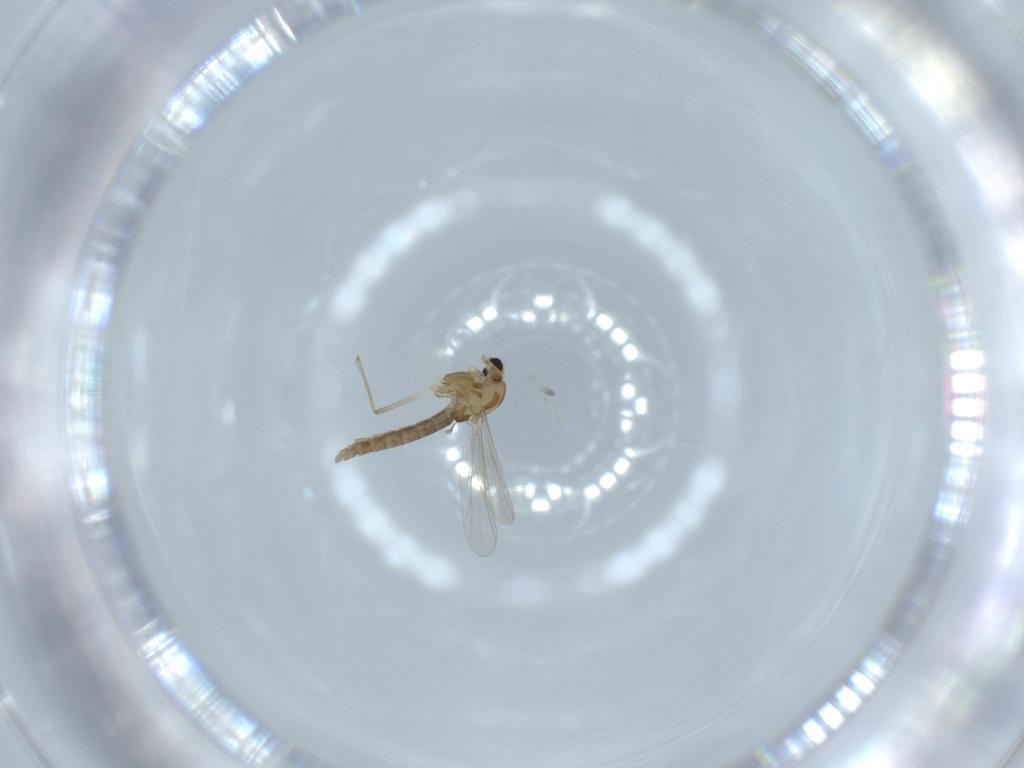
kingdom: Animalia
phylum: Arthropoda
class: Insecta
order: Diptera
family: Chironomidae
